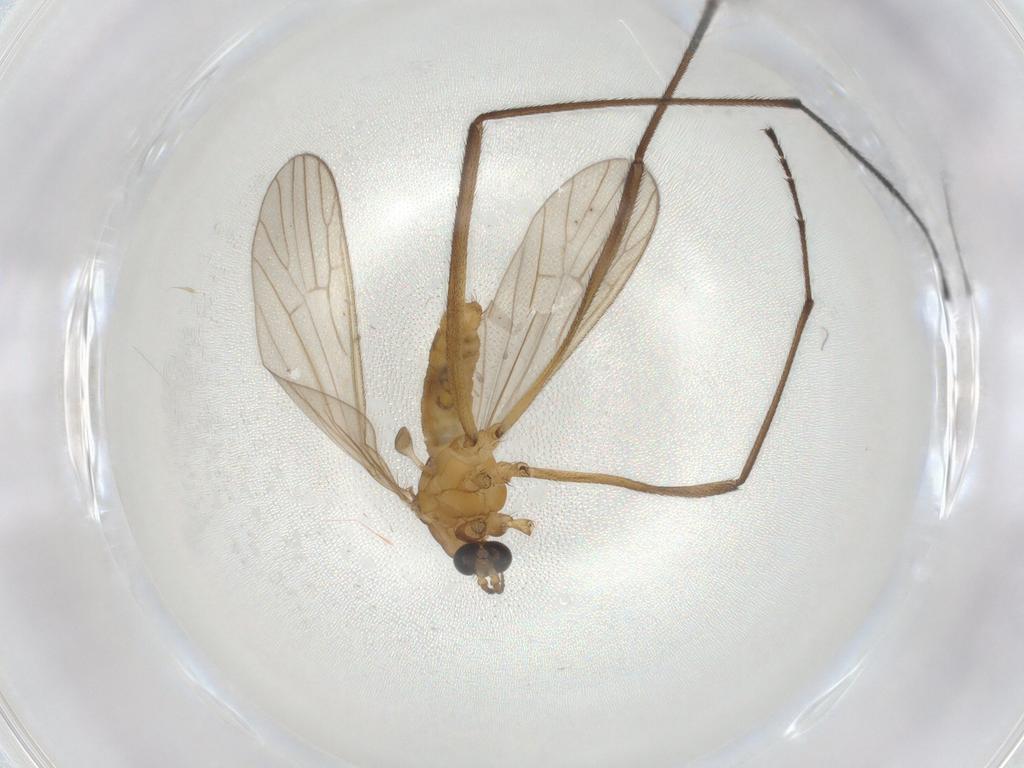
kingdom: Animalia
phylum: Arthropoda
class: Insecta
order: Diptera
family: Limoniidae
